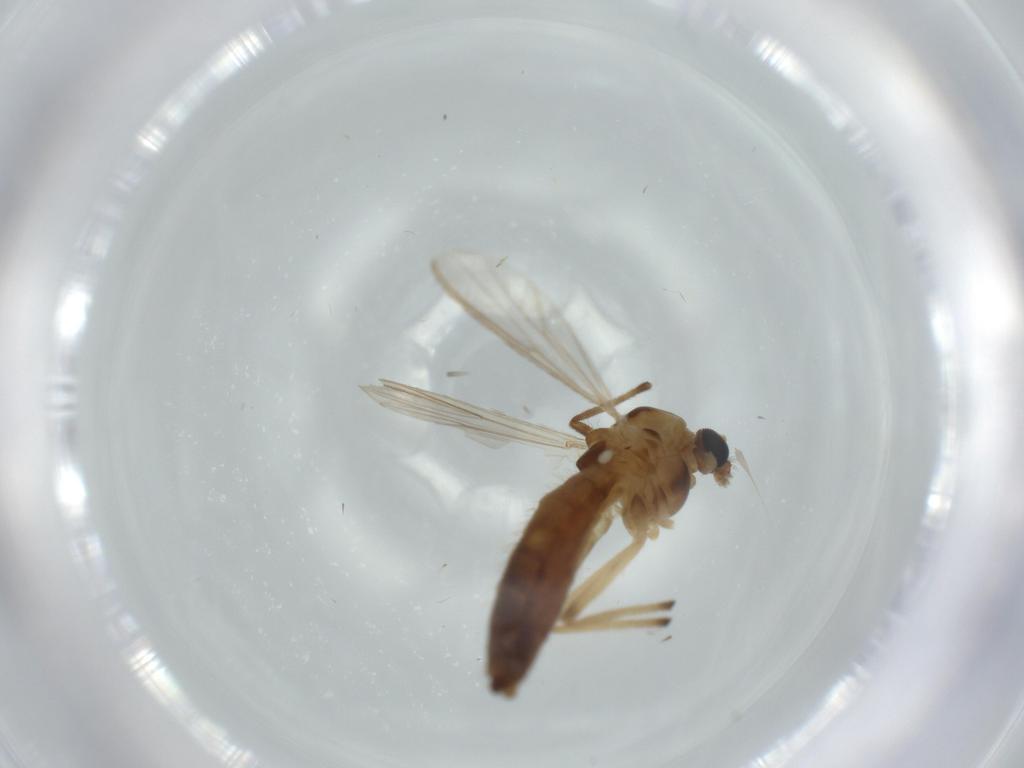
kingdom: Animalia
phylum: Arthropoda
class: Insecta
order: Diptera
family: Chironomidae
